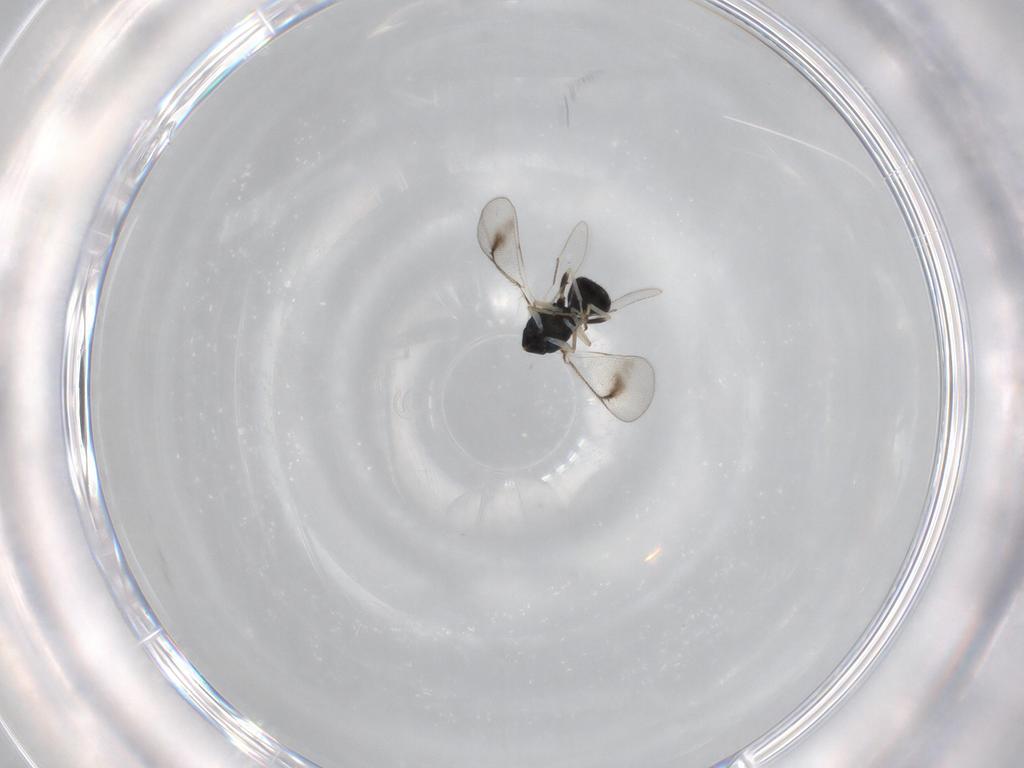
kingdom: Animalia
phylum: Arthropoda
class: Insecta
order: Hymenoptera
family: Eulophidae
